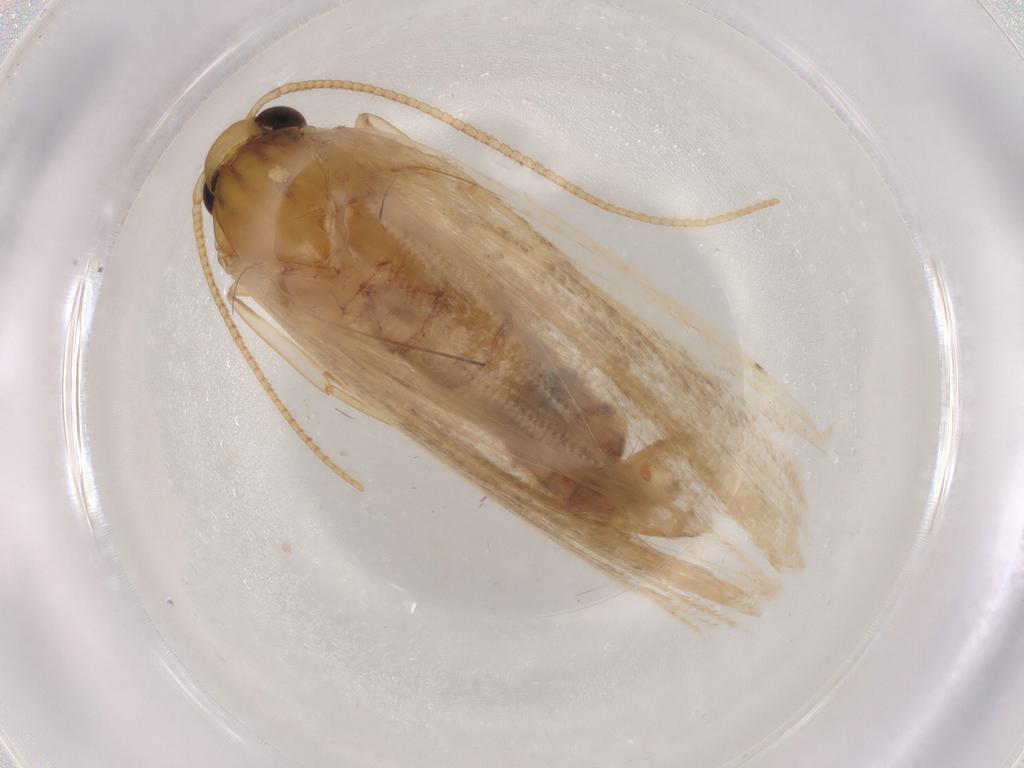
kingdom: Animalia
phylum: Arthropoda
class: Insecta
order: Lepidoptera
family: Depressariidae
